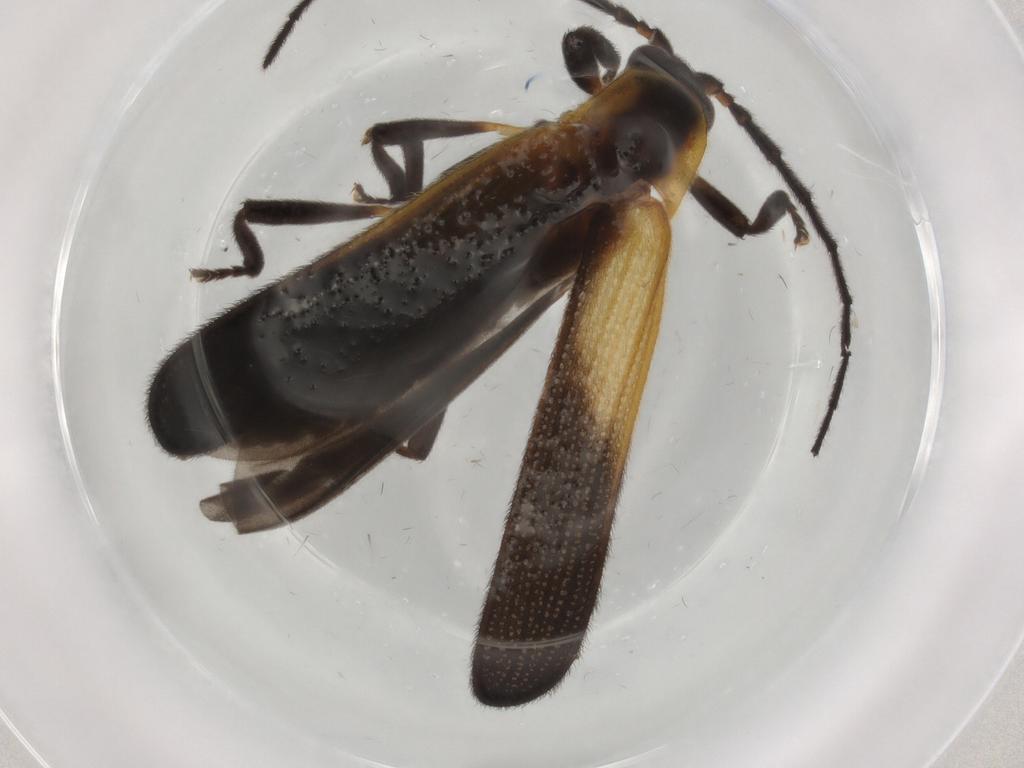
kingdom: Animalia
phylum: Arthropoda
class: Insecta
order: Coleoptera
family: Lycidae
